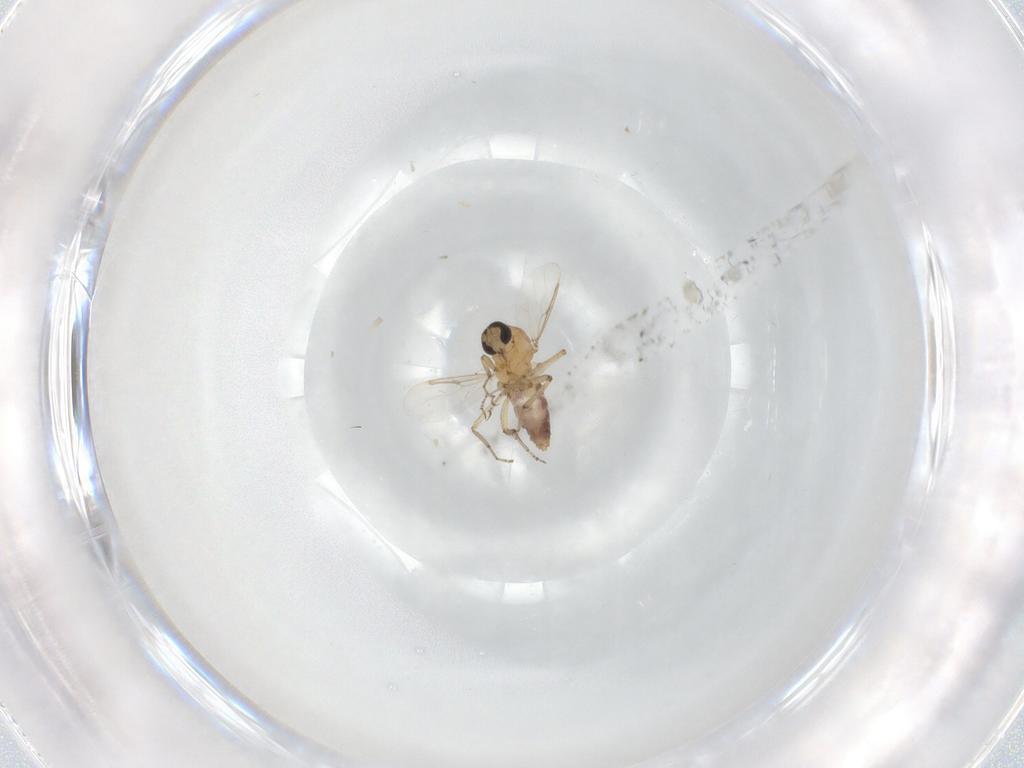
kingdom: Animalia
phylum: Arthropoda
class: Insecta
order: Diptera
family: Ceratopogonidae
